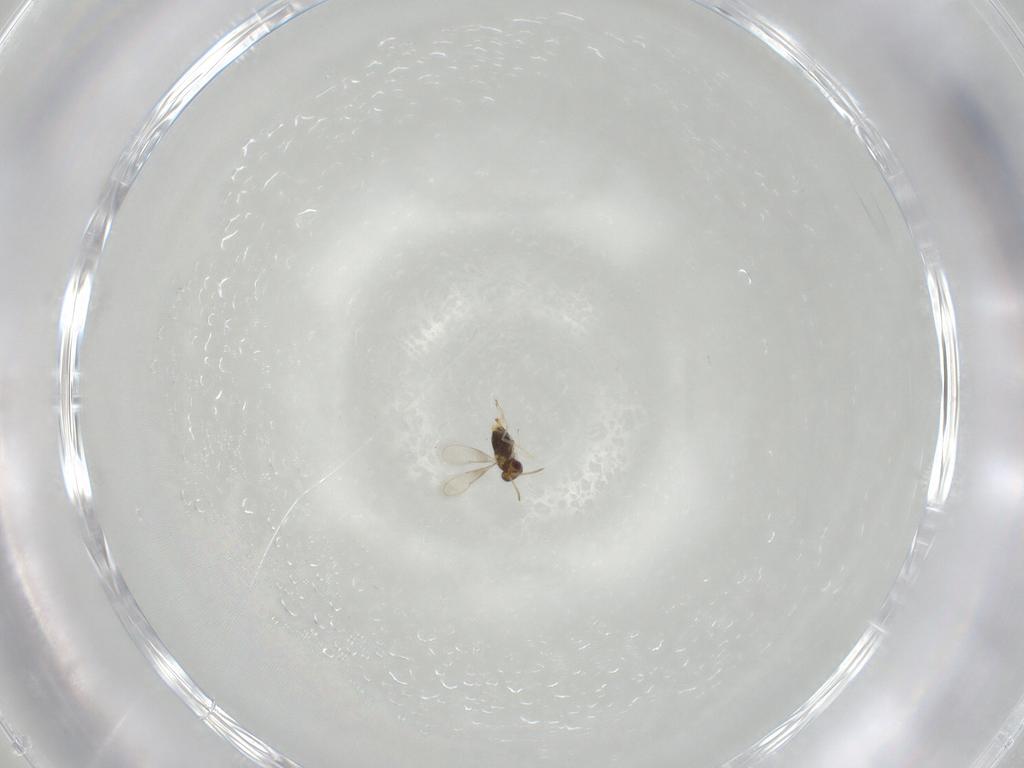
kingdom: Animalia
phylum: Arthropoda
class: Insecta
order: Hymenoptera
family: Aphelinidae
